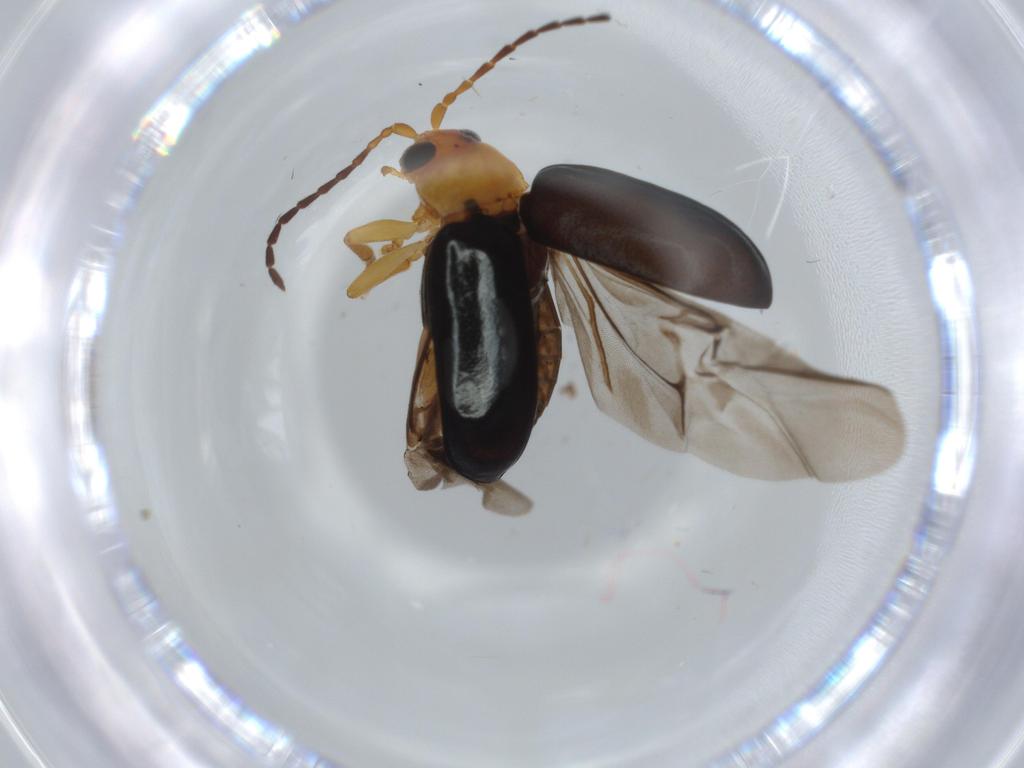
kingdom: Animalia
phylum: Arthropoda
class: Insecta
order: Coleoptera
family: Chrysomelidae
